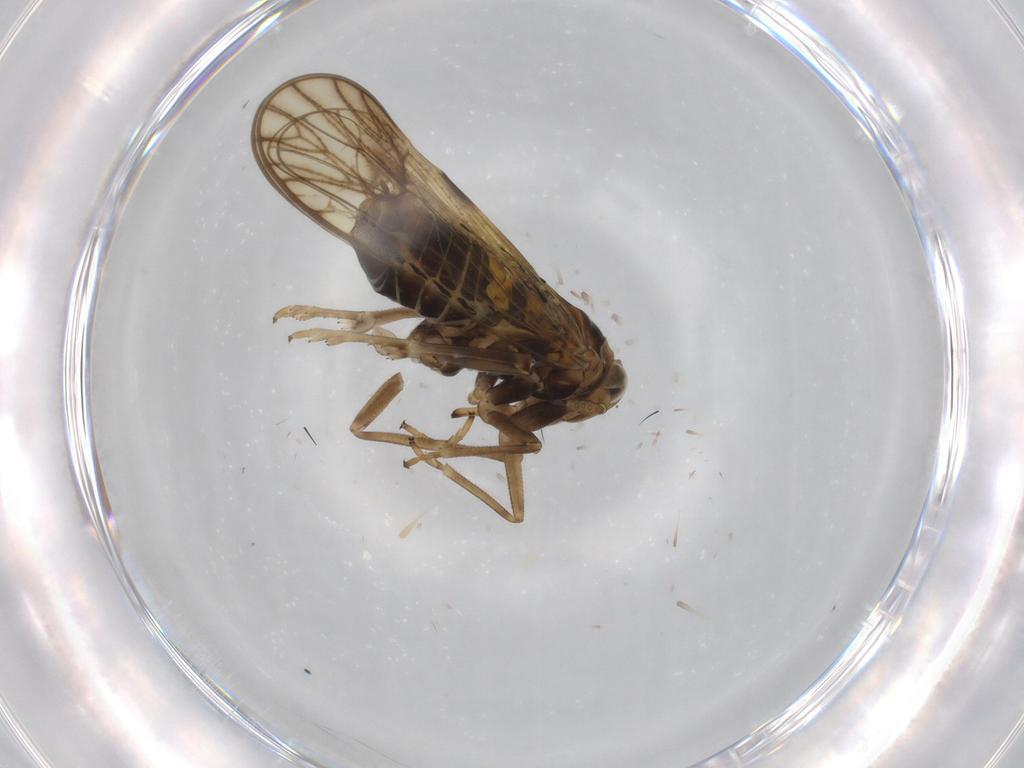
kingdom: Animalia
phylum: Arthropoda
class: Insecta
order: Hemiptera
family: Delphacidae
